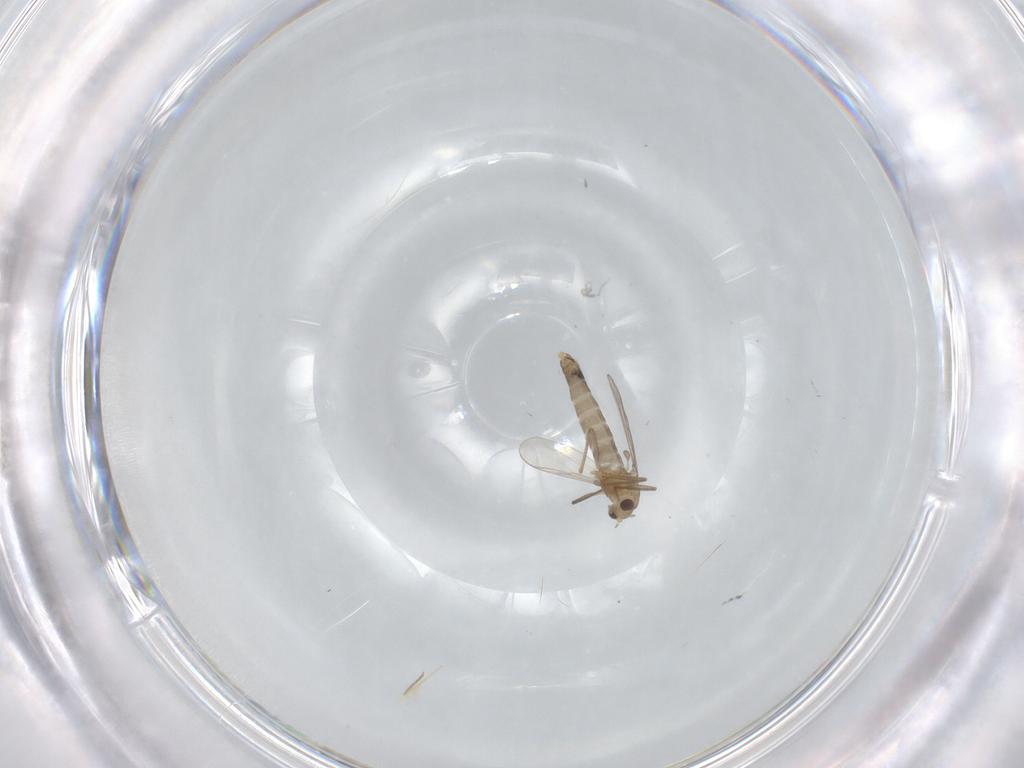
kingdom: Animalia
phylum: Arthropoda
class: Insecta
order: Diptera
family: Chironomidae
